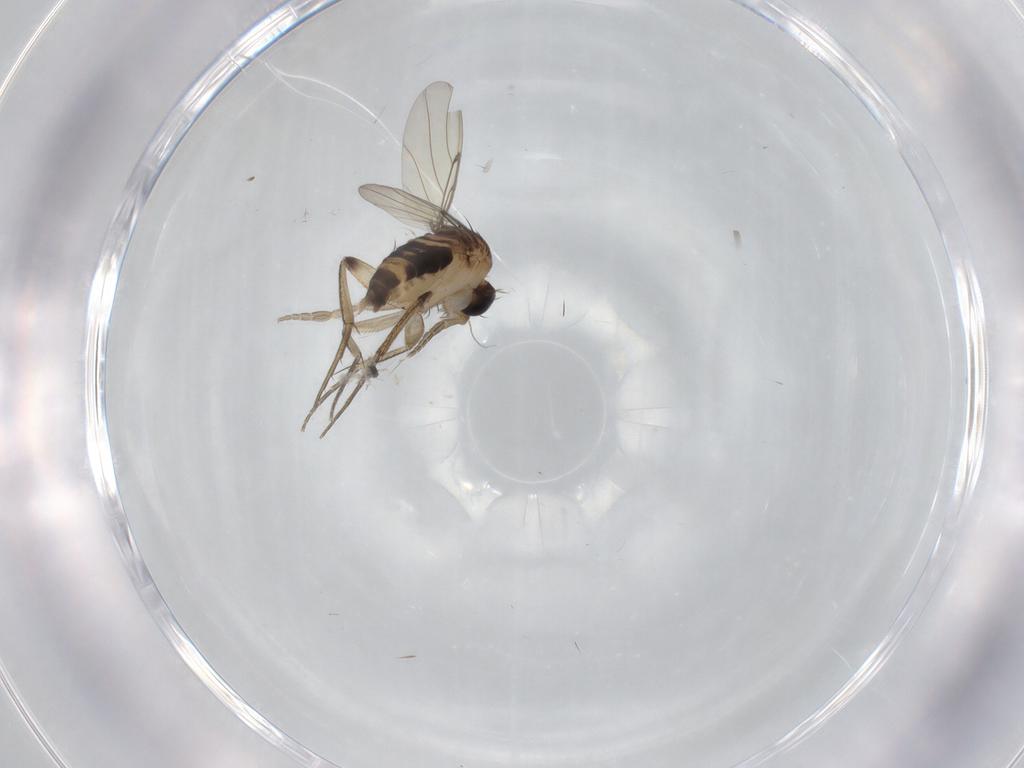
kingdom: Animalia
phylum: Arthropoda
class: Insecta
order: Diptera
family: Phoridae
